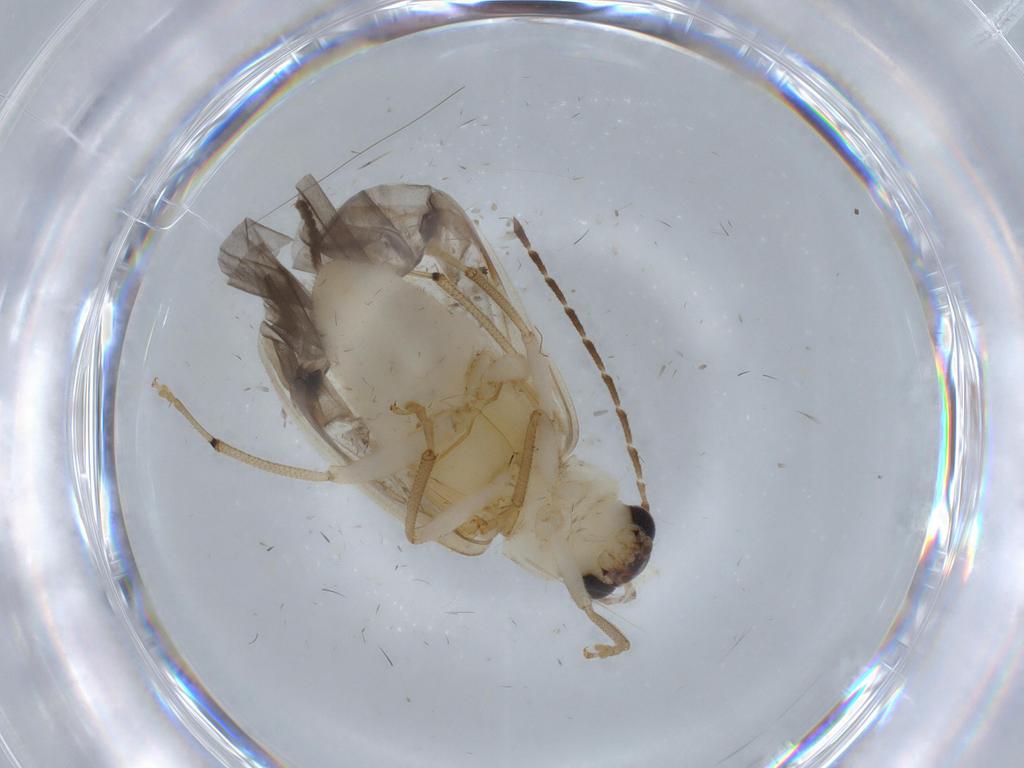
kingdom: Animalia
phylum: Arthropoda
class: Insecta
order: Coleoptera
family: Chrysomelidae
